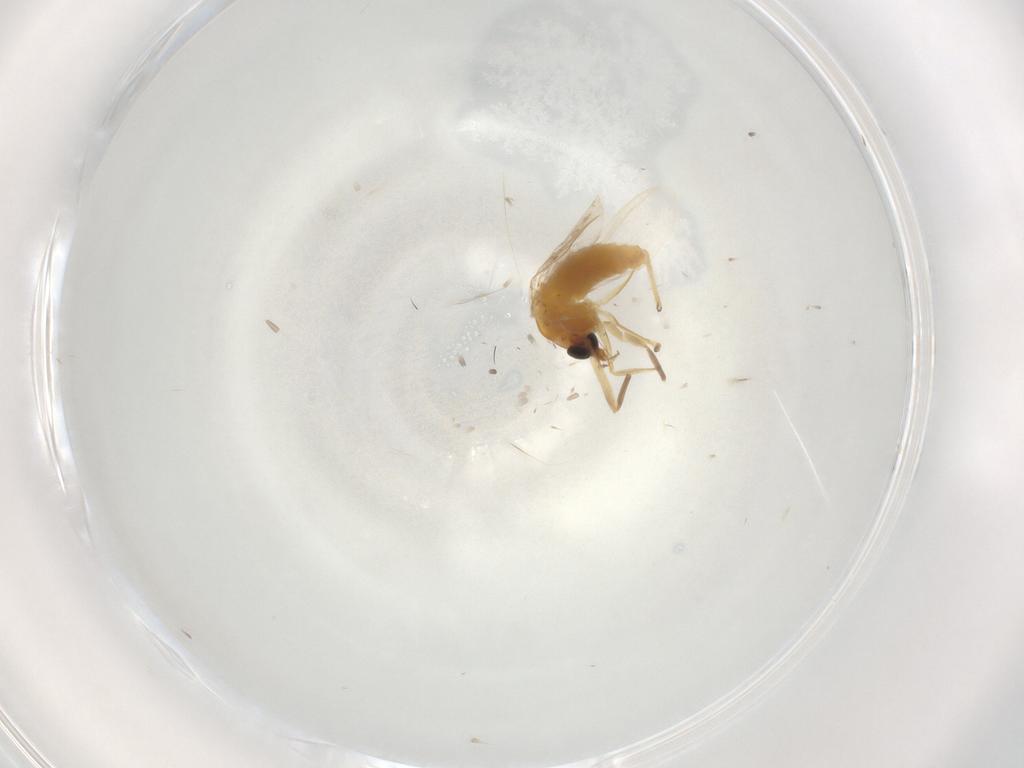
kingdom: Animalia
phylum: Arthropoda
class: Insecta
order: Diptera
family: Chironomidae
